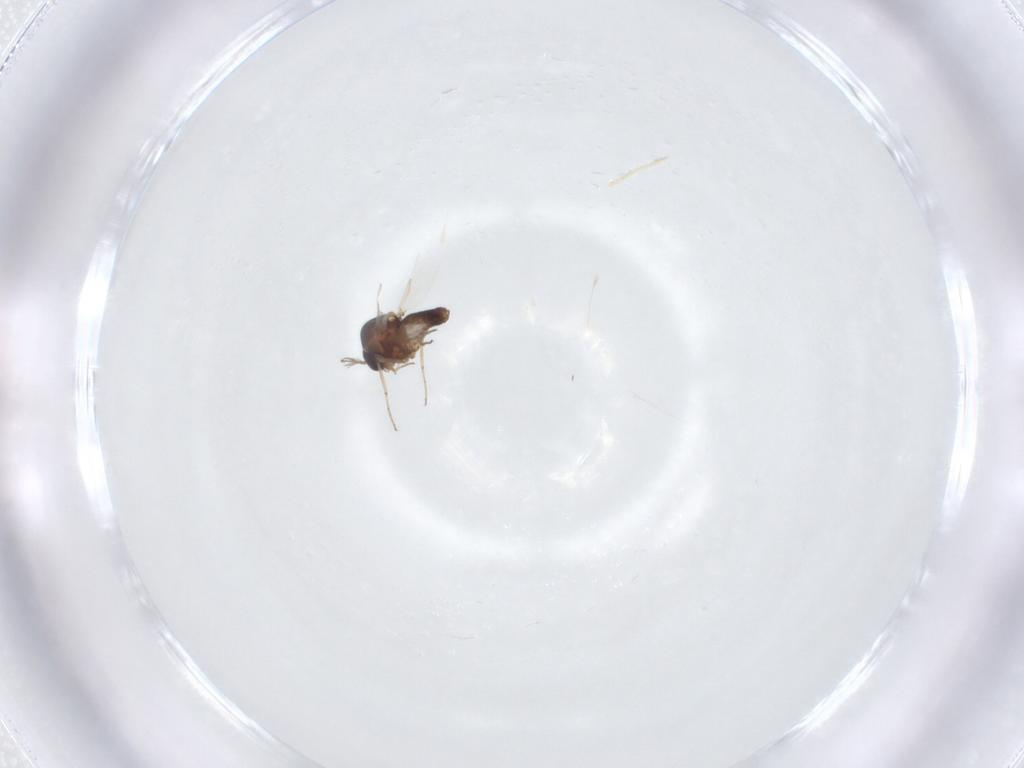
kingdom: Animalia
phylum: Arthropoda
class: Insecta
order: Diptera
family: Ceratopogonidae
